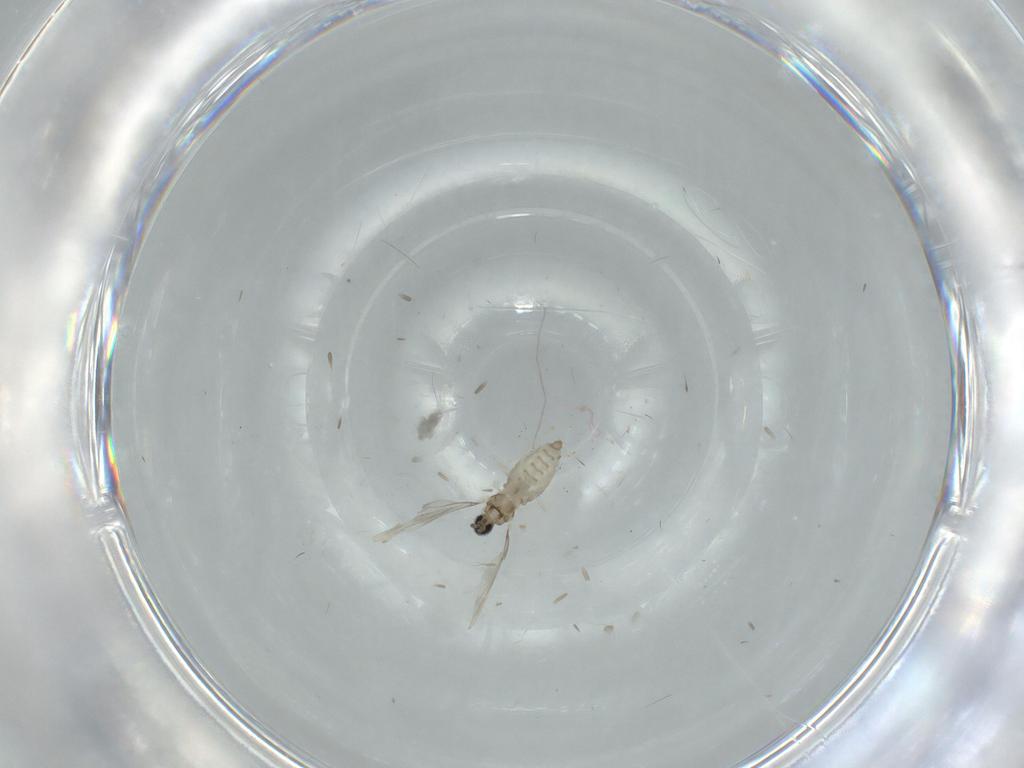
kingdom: Animalia
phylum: Arthropoda
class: Insecta
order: Diptera
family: Cecidomyiidae
